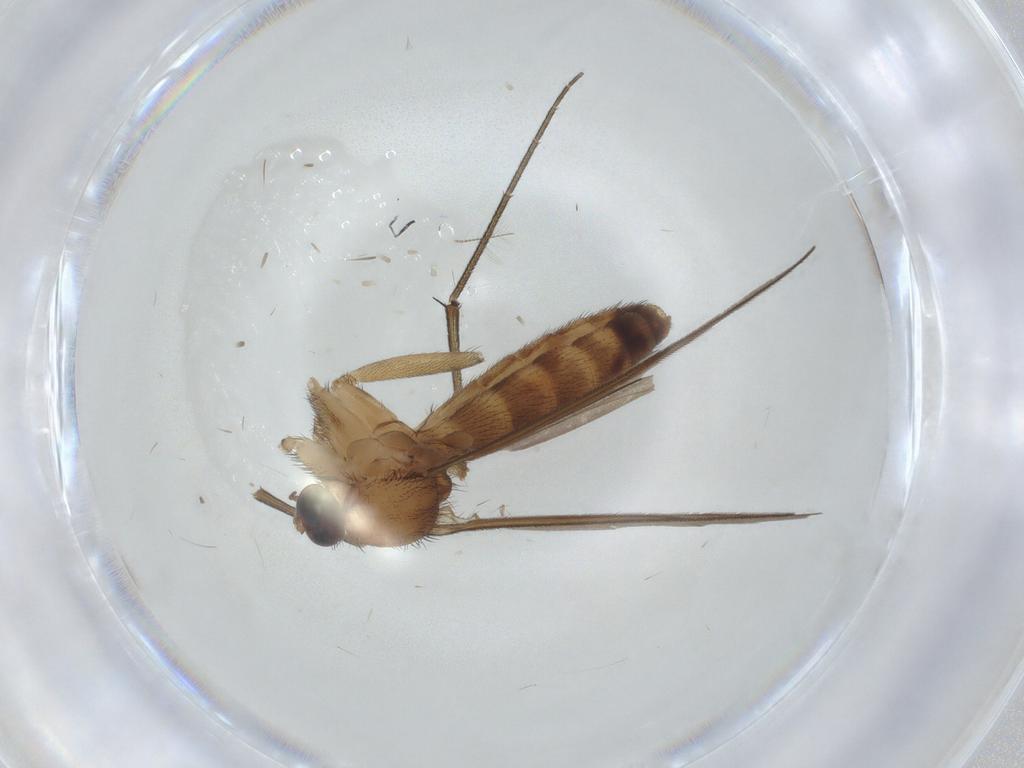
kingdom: Animalia
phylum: Arthropoda
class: Insecta
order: Diptera
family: Keroplatidae
